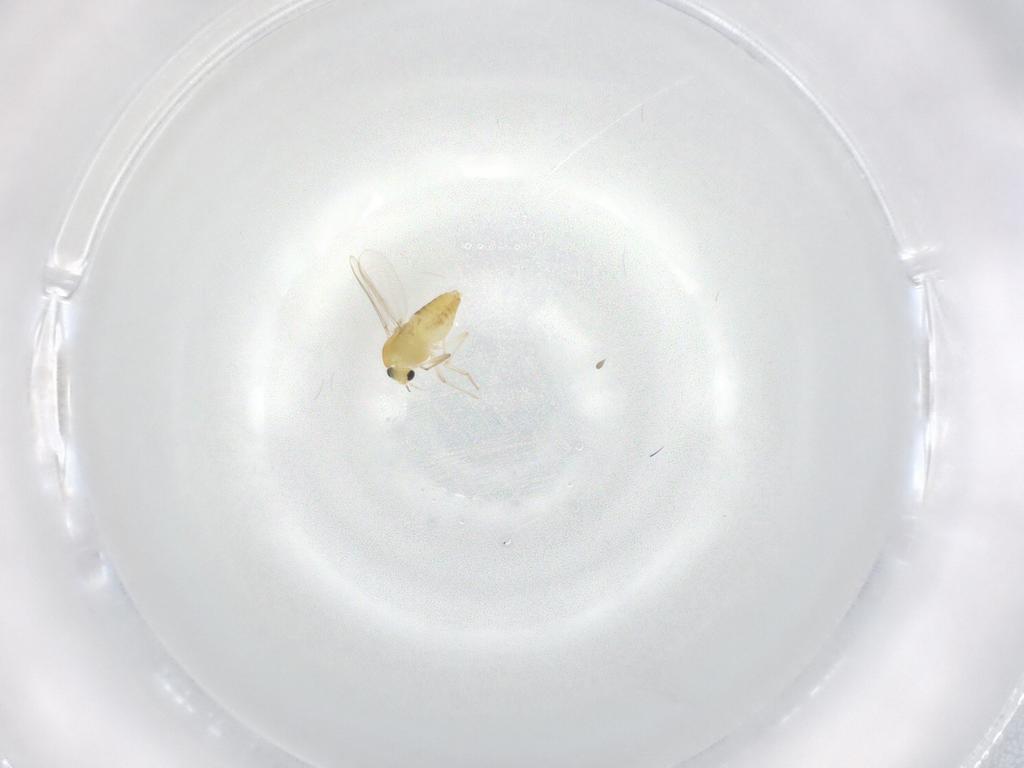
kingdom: Animalia
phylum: Arthropoda
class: Insecta
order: Diptera
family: Chironomidae
